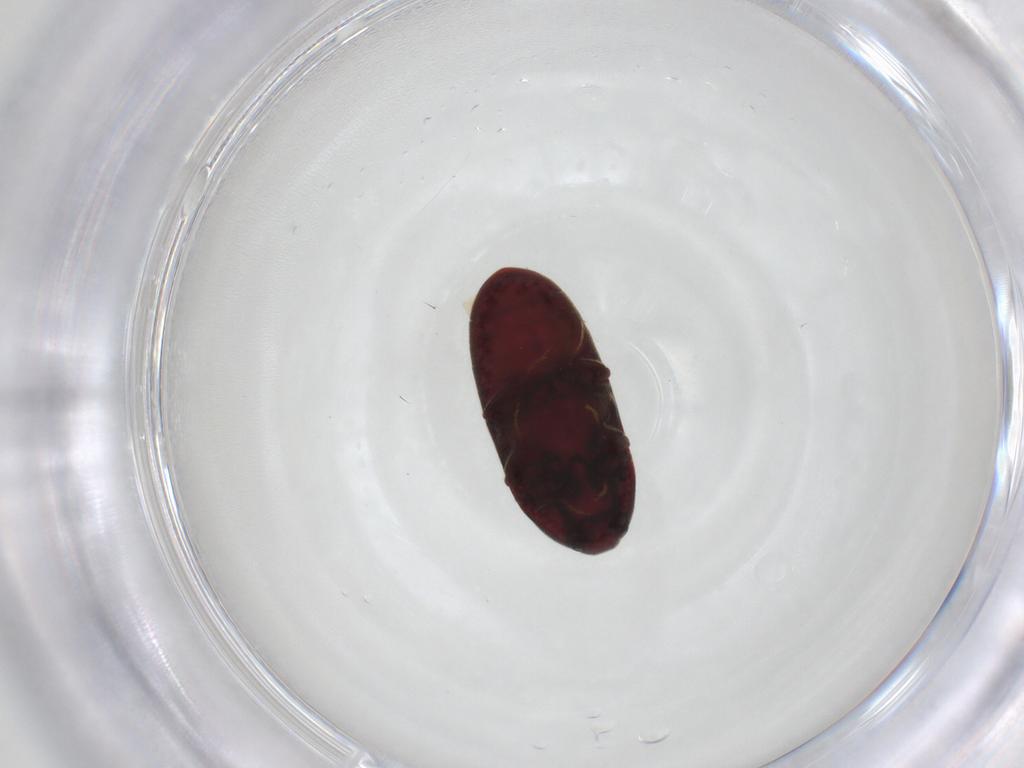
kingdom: Animalia
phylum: Arthropoda
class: Insecta
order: Coleoptera
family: Throscidae
